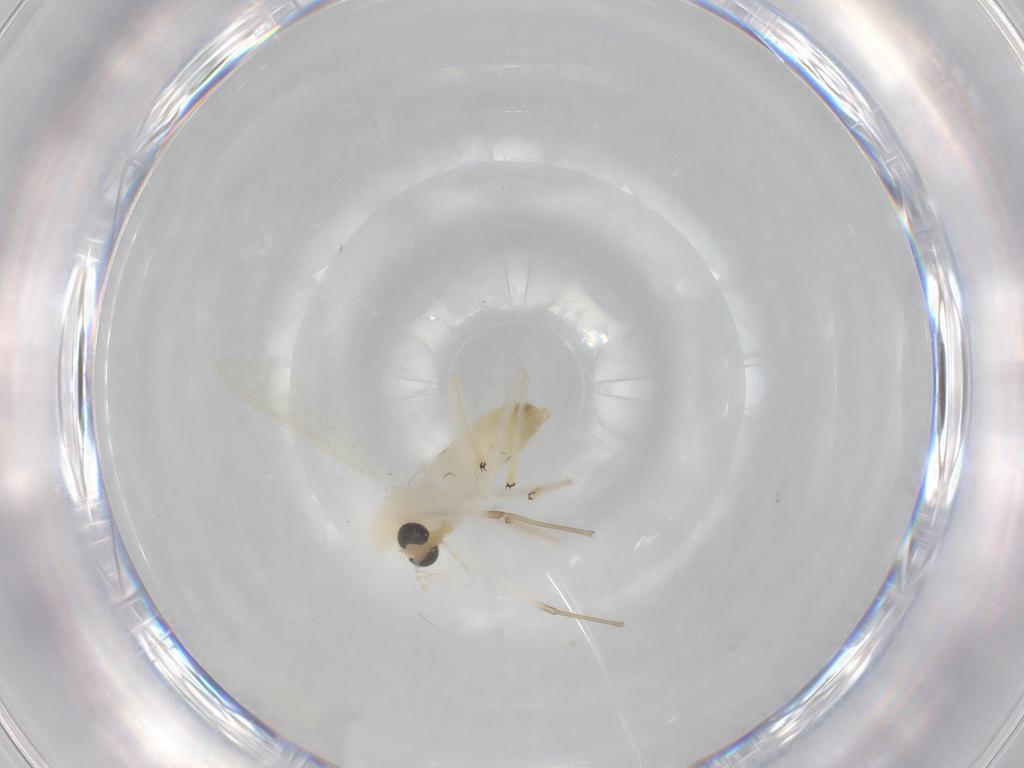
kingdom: Animalia
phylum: Arthropoda
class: Insecta
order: Diptera
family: Chironomidae
